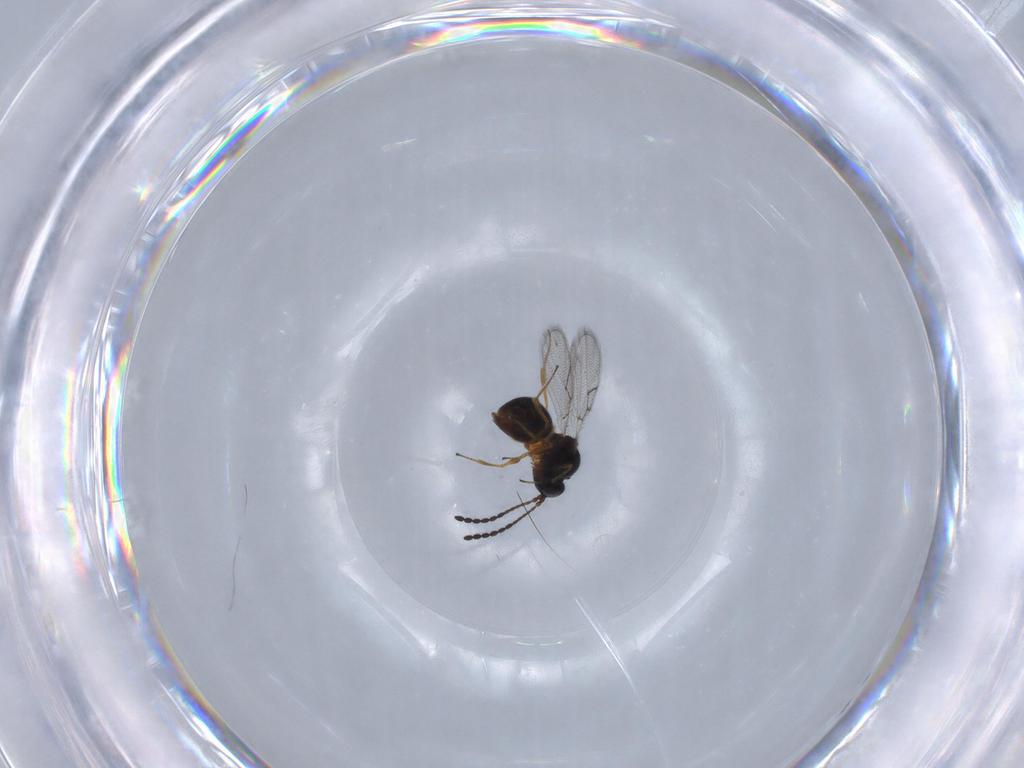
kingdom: Animalia
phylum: Arthropoda
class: Insecta
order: Hymenoptera
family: Figitidae
